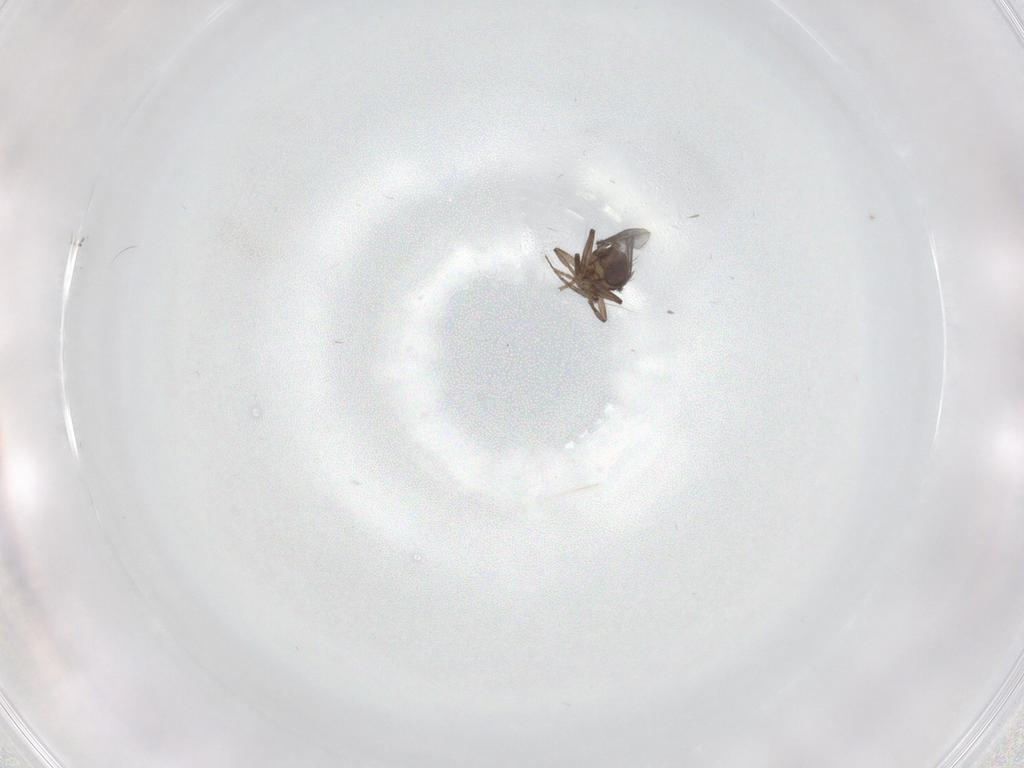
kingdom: Animalia
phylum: Arthropoda
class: Insecta
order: Diptera
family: Sphaeroceridae
